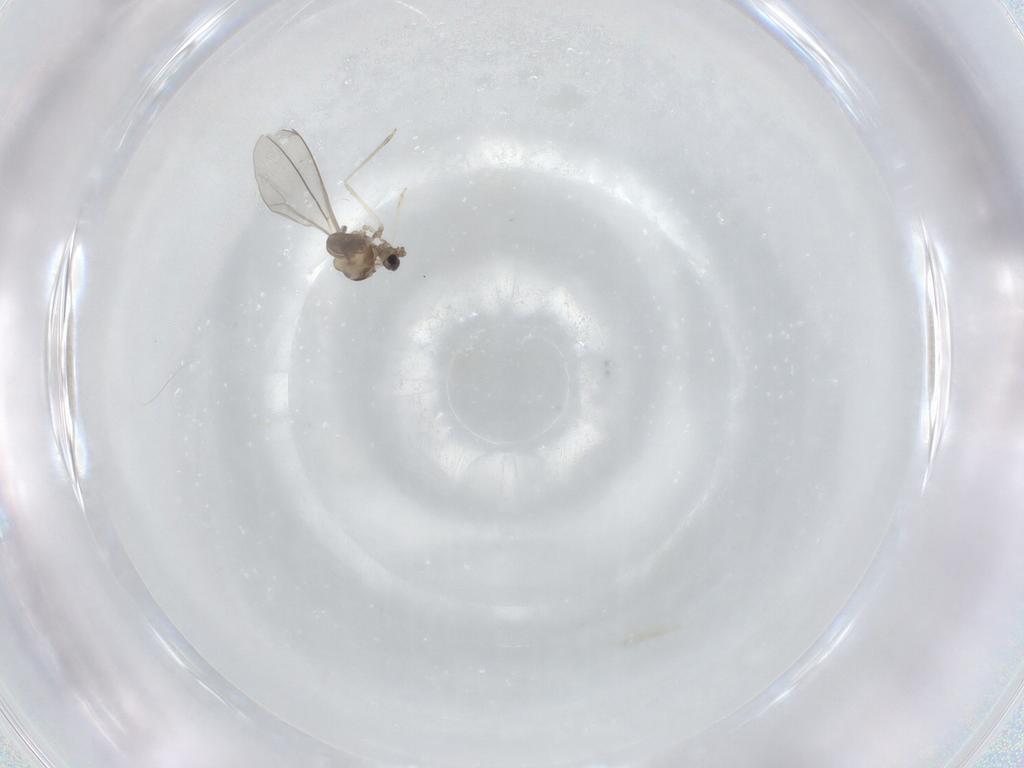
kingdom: Animalia
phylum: Arthropoda
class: Insecta
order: Diptera
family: Cecidomyiidae
